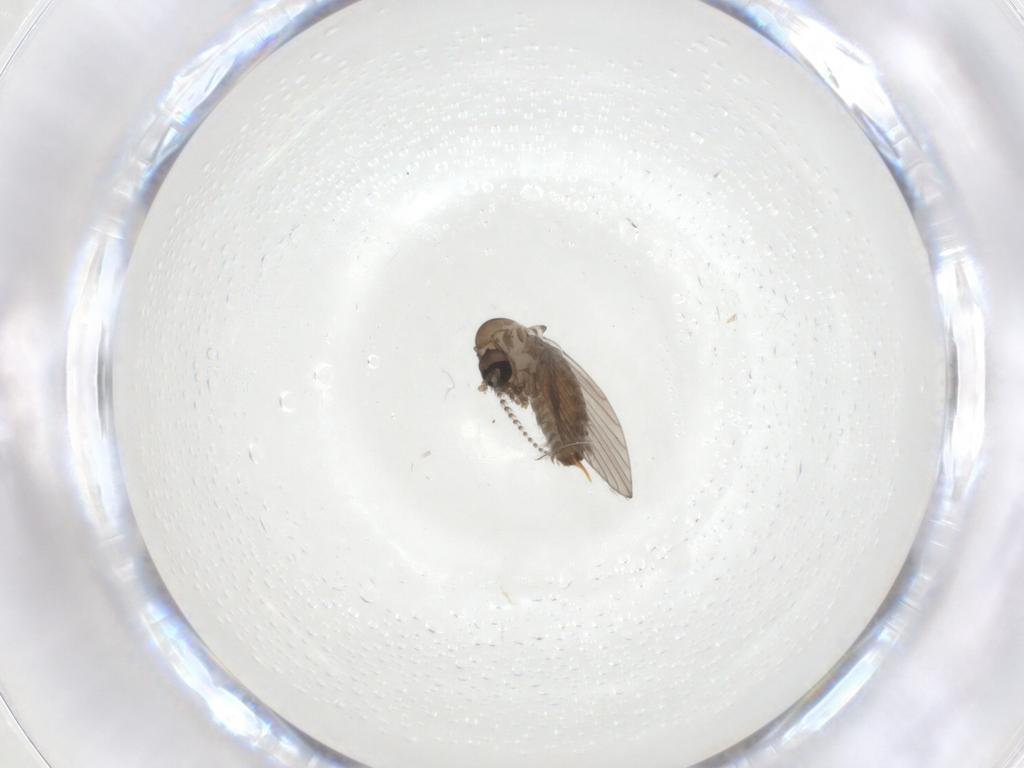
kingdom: Animalia
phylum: Arthropoda
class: Insecta
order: Diptera
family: Psychodidae
